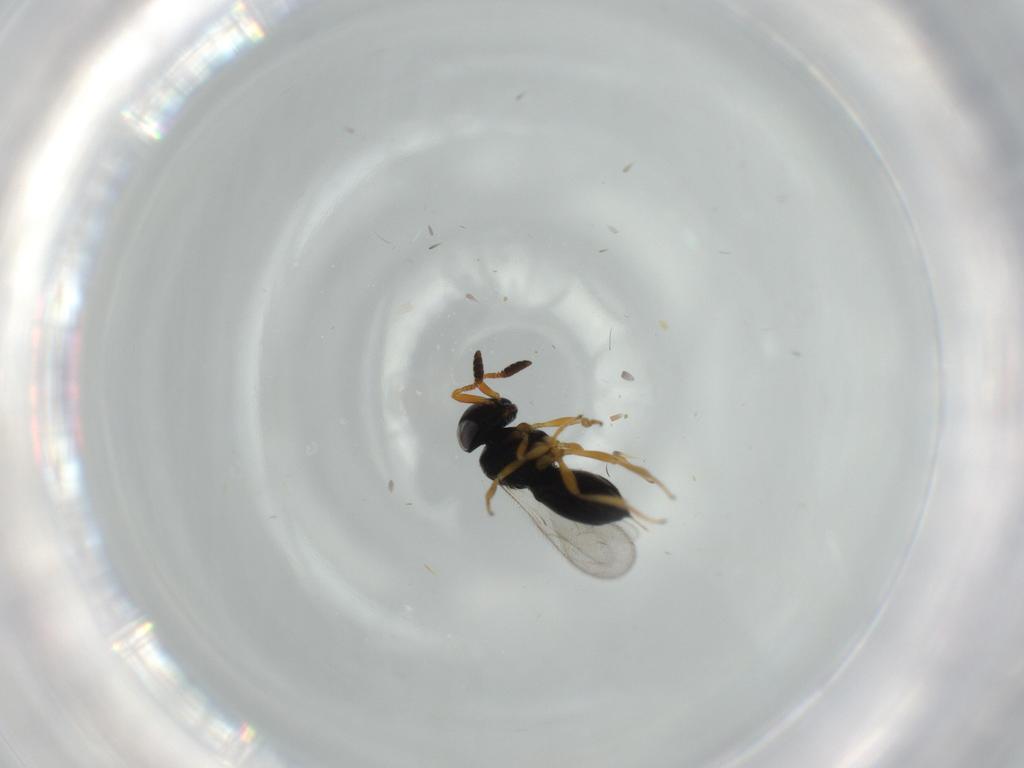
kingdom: Animalia
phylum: Arthropoda
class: Insecta
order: Hymenoptera
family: Scelionidae
